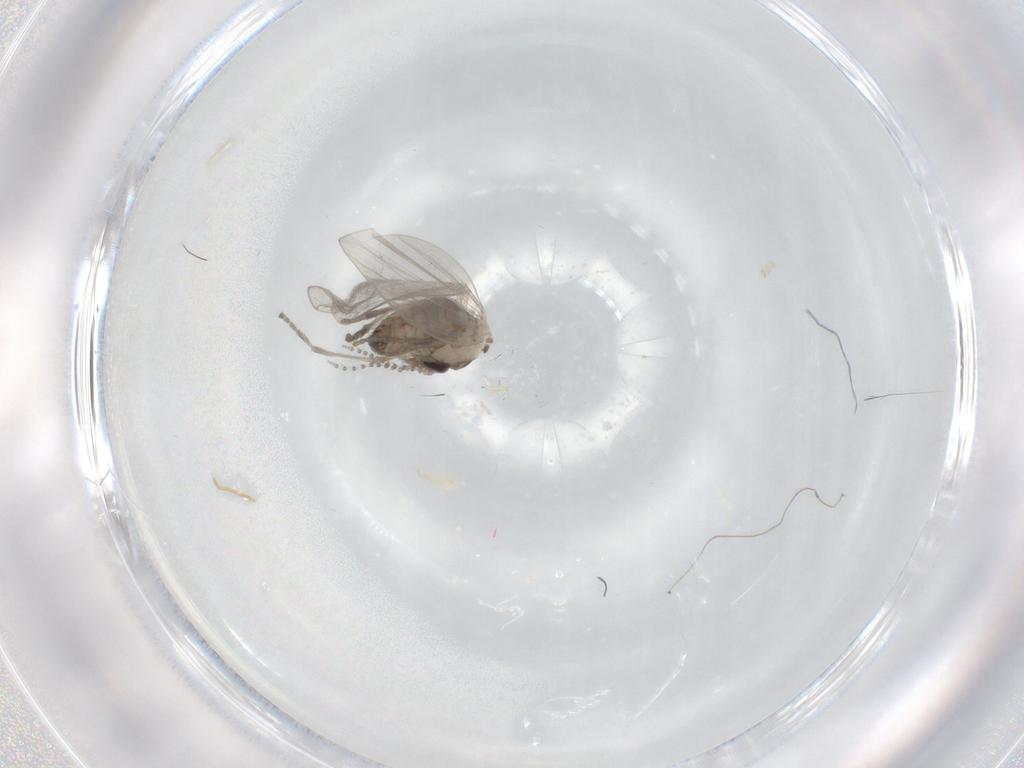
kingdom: Animalia
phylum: Arthropoda
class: Insecta
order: Diptera
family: Psychodidae
